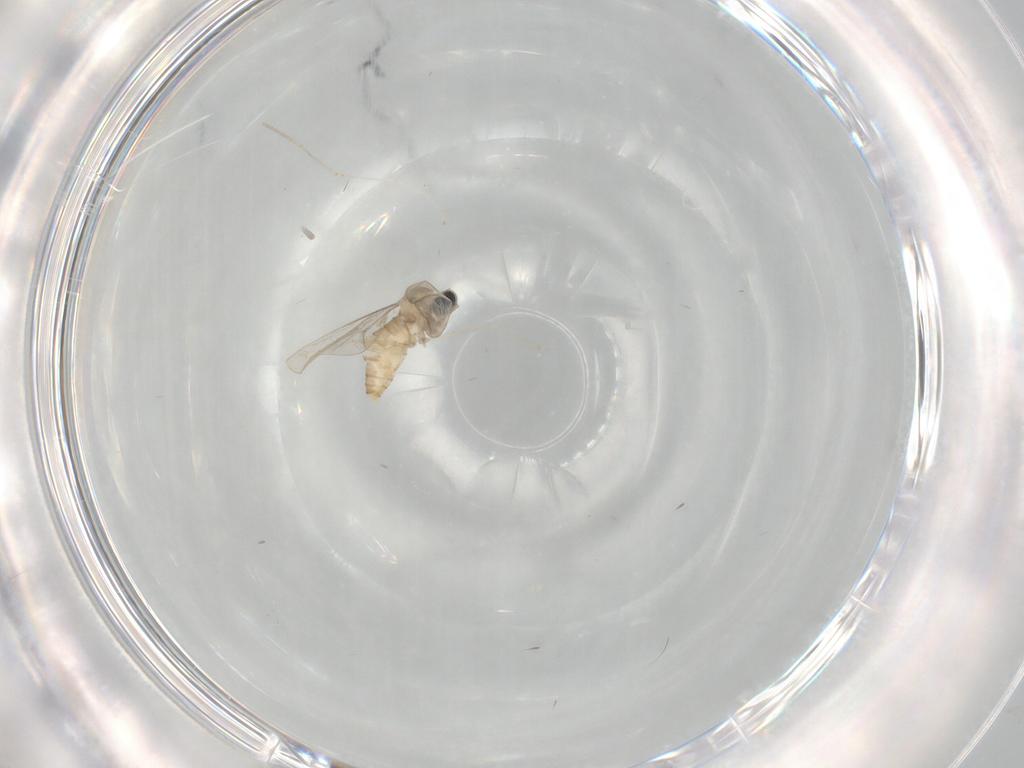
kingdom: Animalia
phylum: Arthropoda
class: Insecta
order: Diptera
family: Cecidomyiidae
